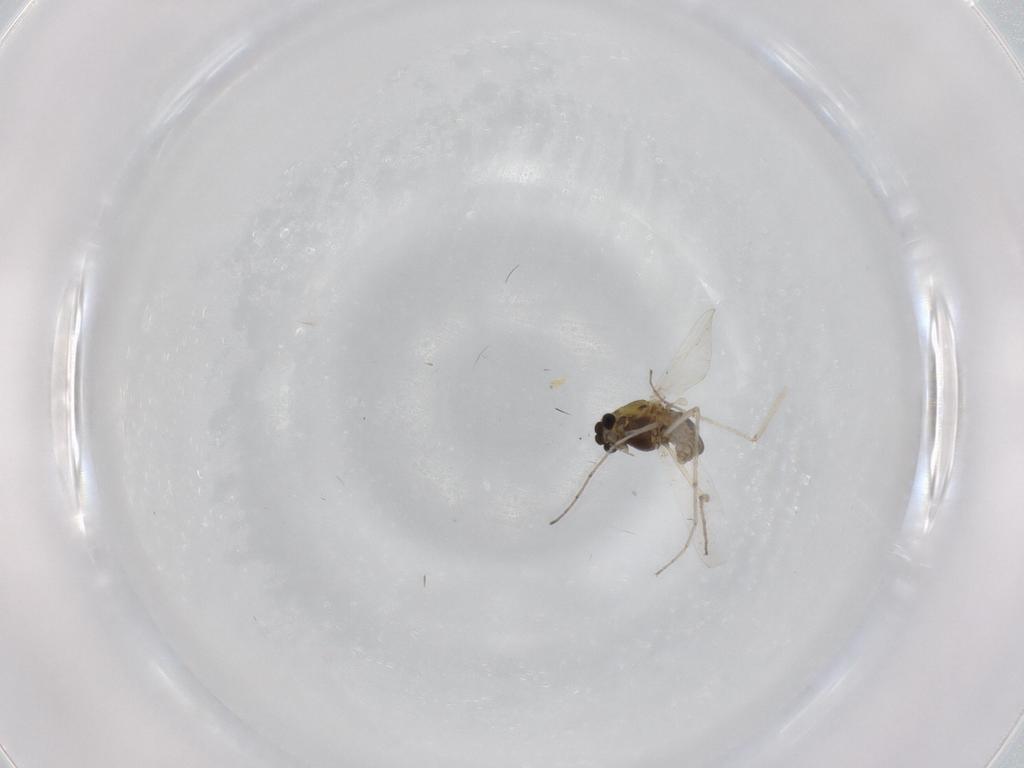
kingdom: Animalia
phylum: Arthropoda
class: Insecta
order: Diptera
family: Chironomidae
